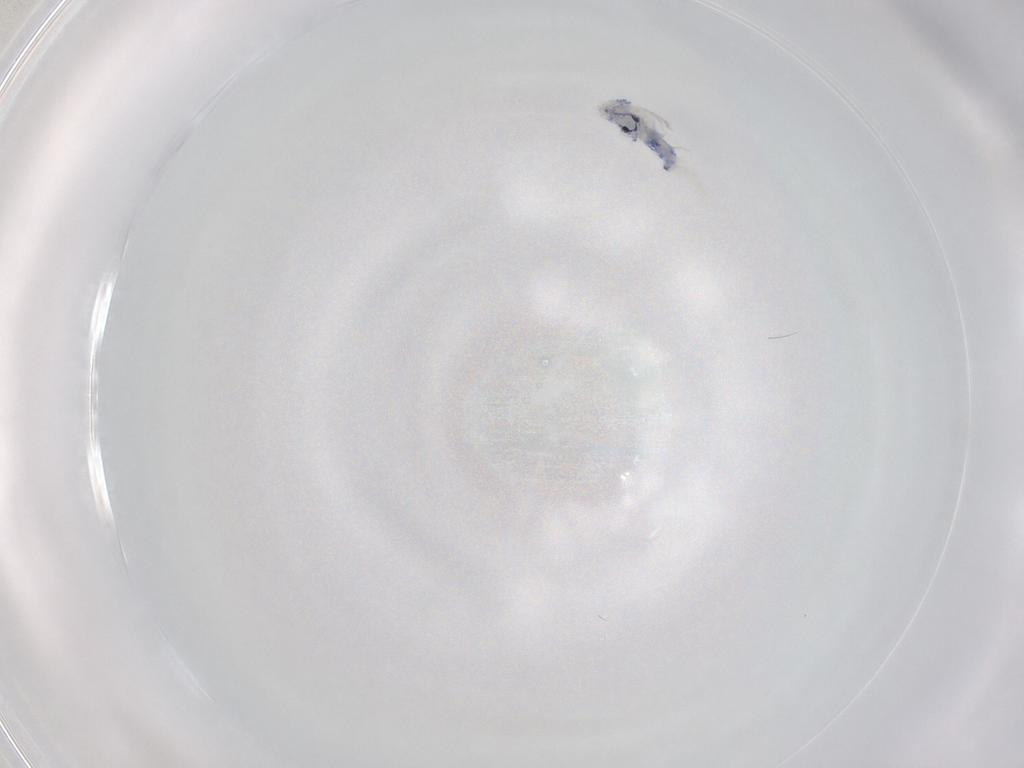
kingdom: Animalia
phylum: Arthropoda
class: Collembola
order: Entomobryomorpha
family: Entomobryidae
